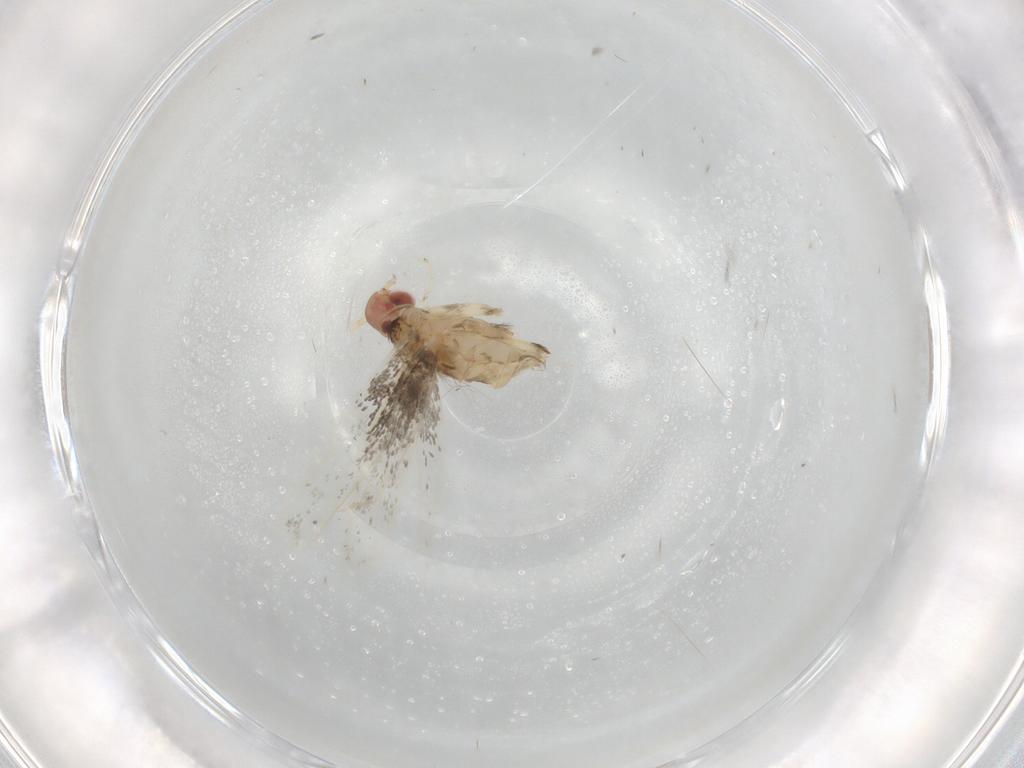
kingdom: Animalia
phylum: Arthropoda
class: Insecta
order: Lepidoptera
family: Gracillariidae
